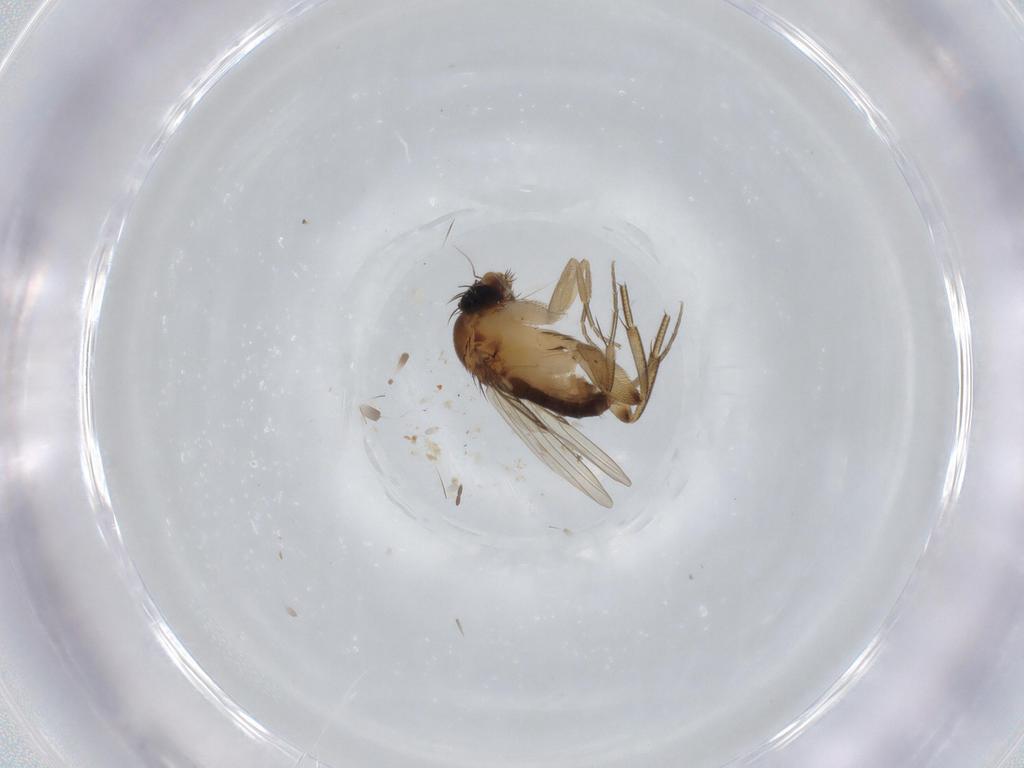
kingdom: Animalia
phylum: Arthropoda
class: Insecta
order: Diptera
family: Phoridae
